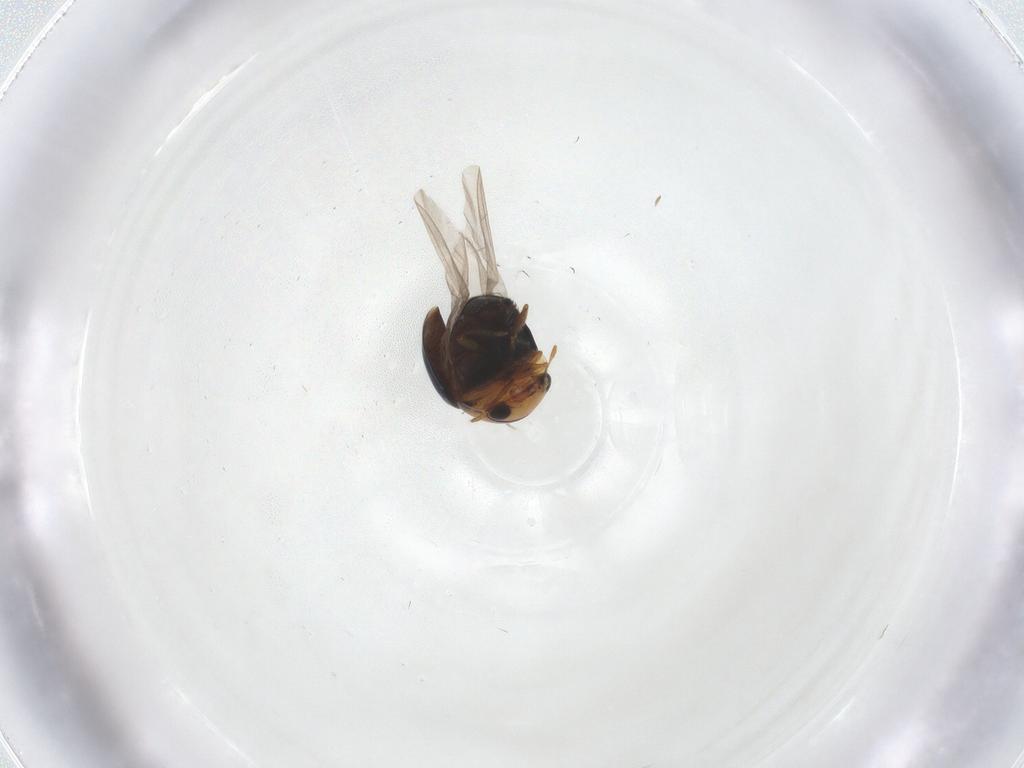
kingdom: Animalia
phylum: Arthropoda
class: Insecta
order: Coleoptera
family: Cybocephalidae
